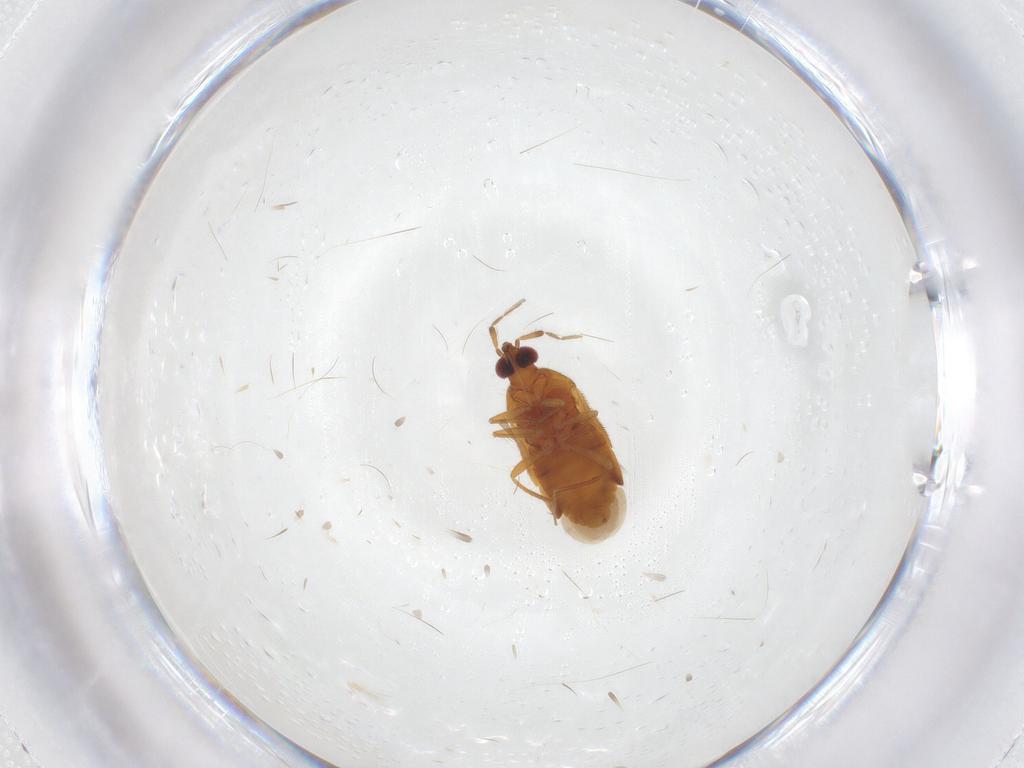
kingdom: Animalia
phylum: Arthropoda
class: Insecta
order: Hemiptera
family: Anthocoridae
